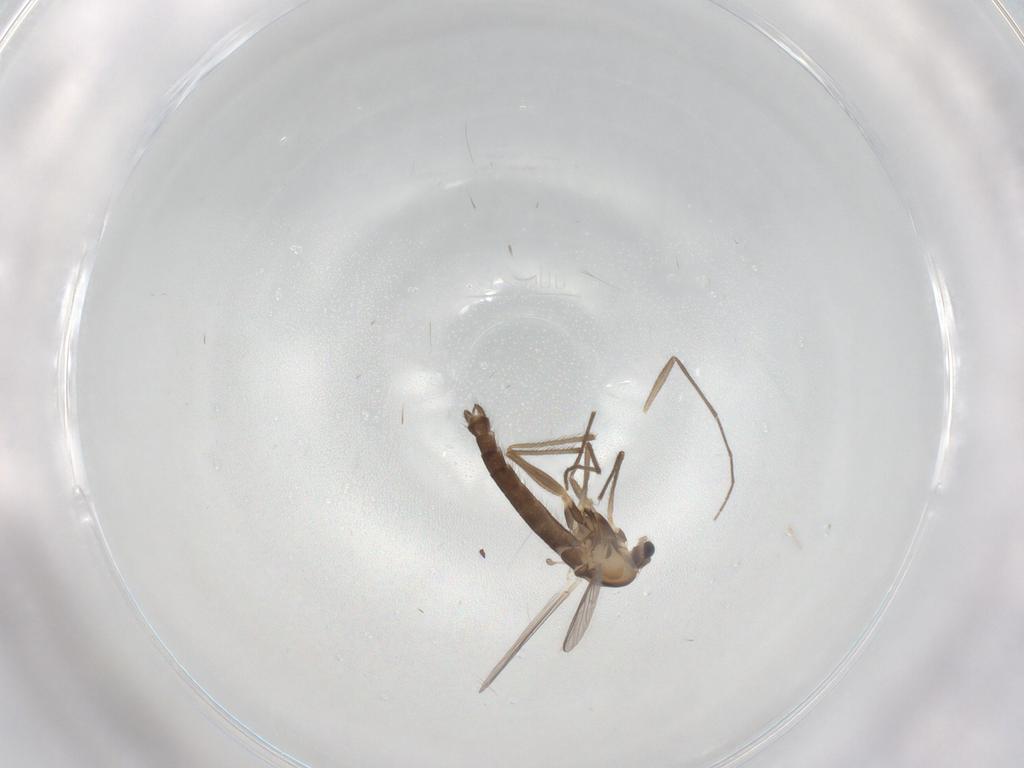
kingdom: Animalia
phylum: Arthropoda
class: Insecta
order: Diptera
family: Chironomidae
